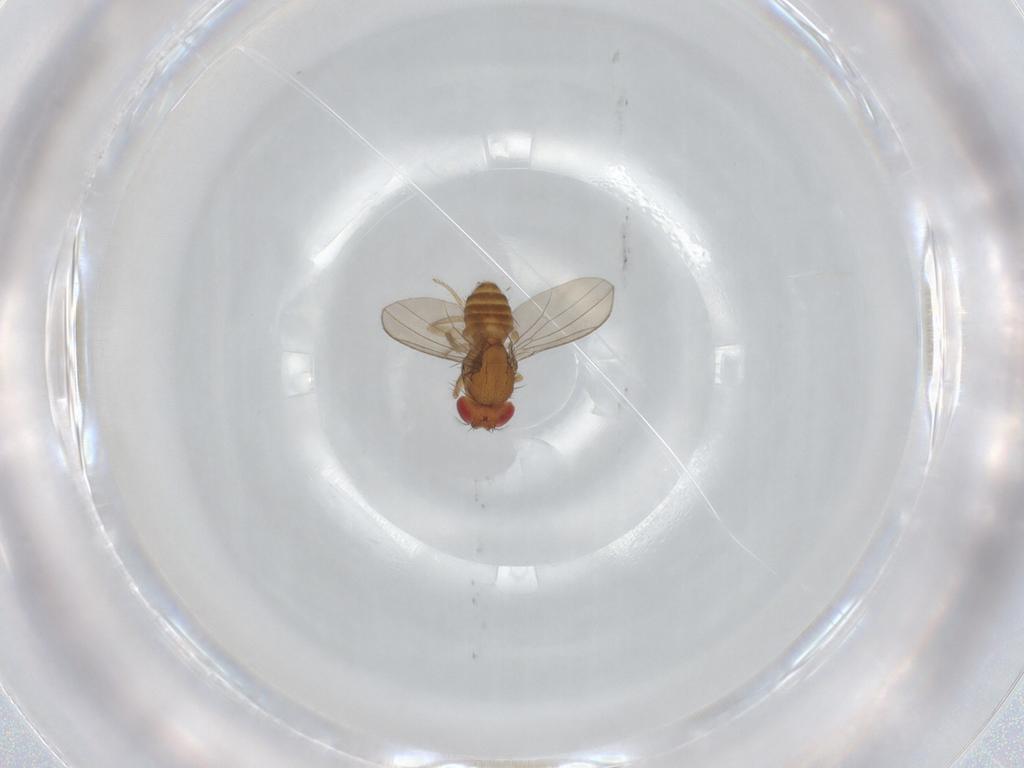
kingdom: Animalia
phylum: Arthropoda
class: Insecta
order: Diptera
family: Drosophilidae
